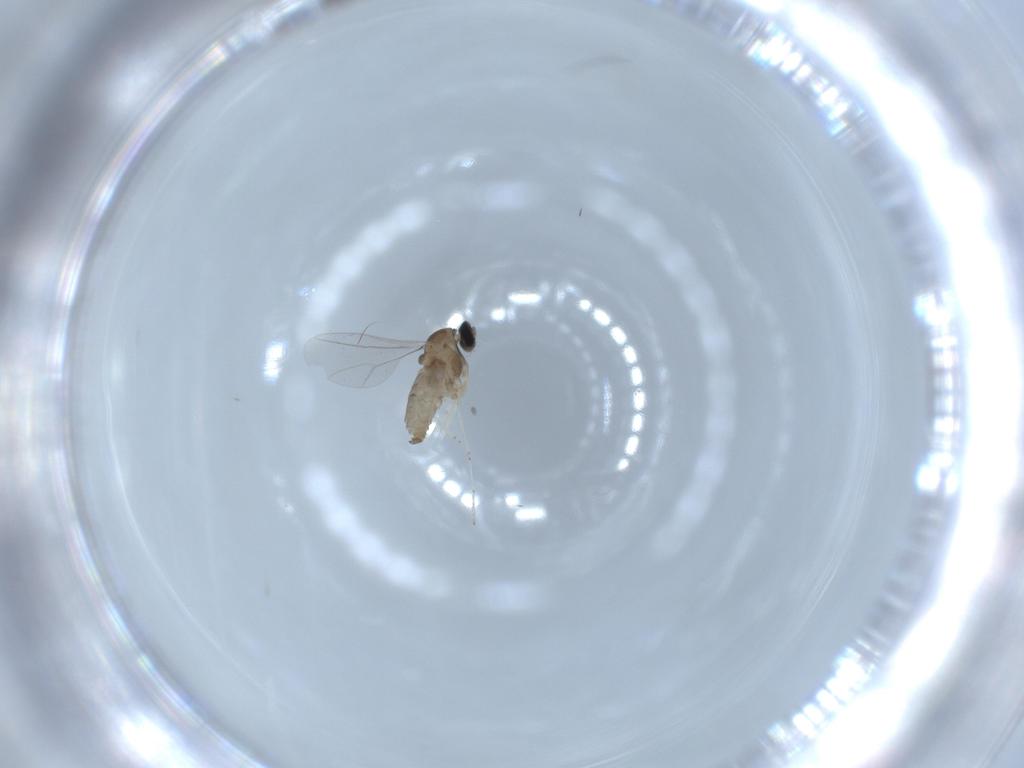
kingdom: Animalia
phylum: Arthropoda
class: Insecta
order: Diptera
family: Cecidomyiidae
